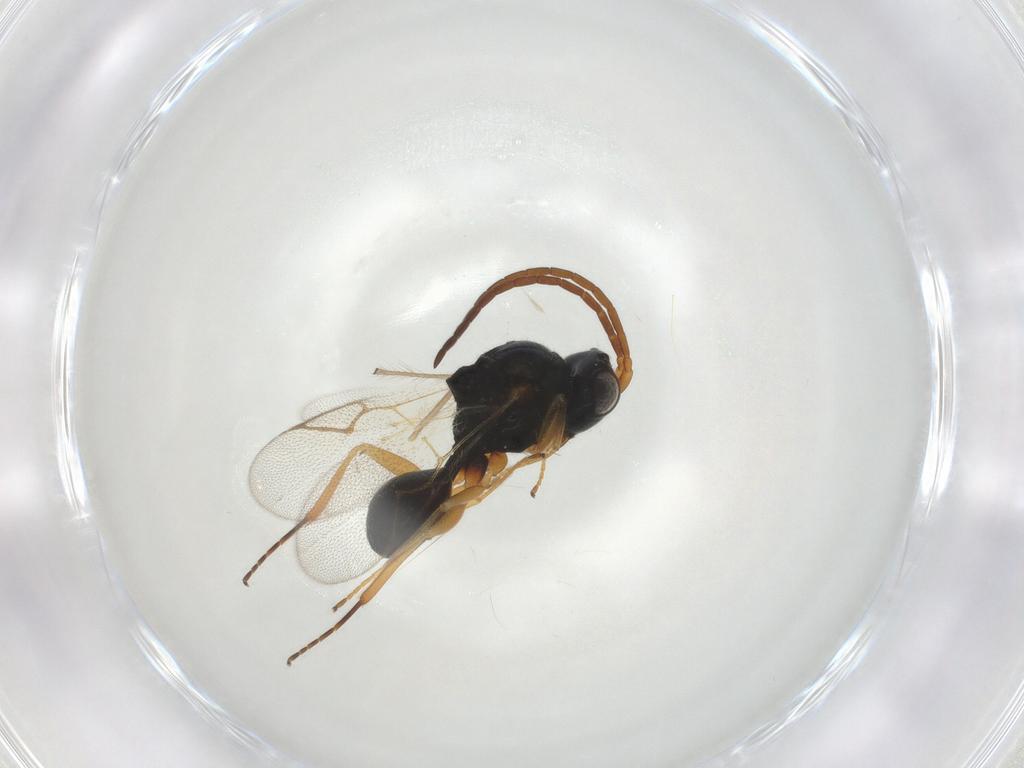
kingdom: Animalia
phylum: Arthropoda
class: Insecta
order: Hymenoptera
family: Figitidae
